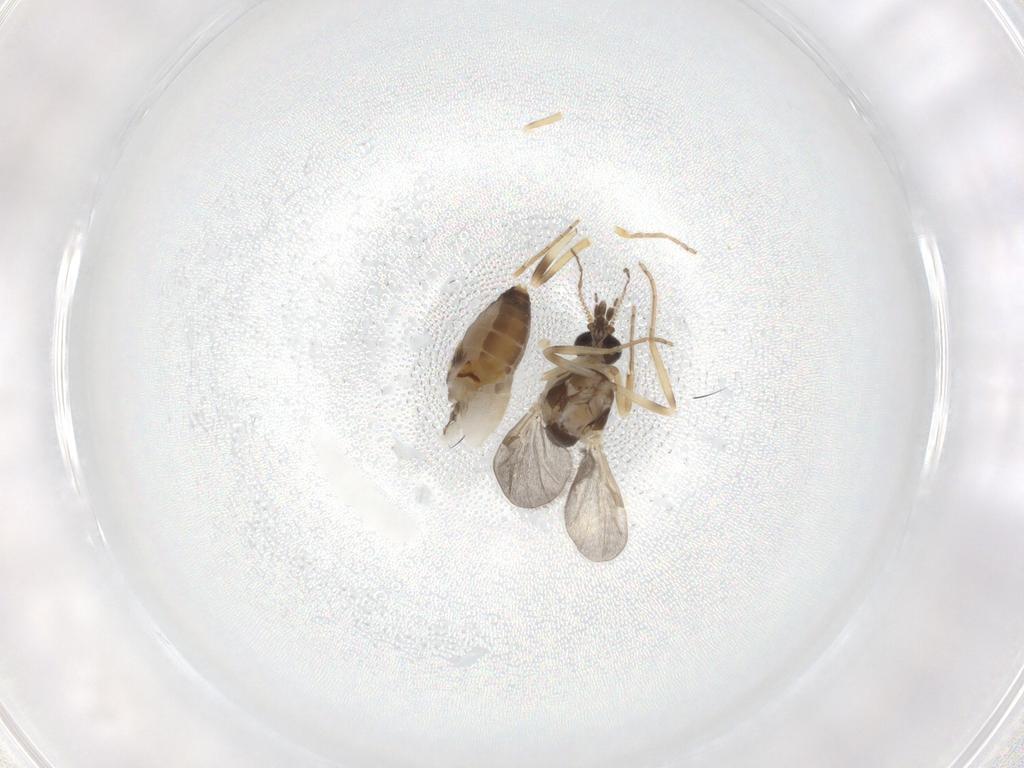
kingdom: Animalia
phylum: Arthropoda
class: Insecta
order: Diptera
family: Ceratopogonidae
